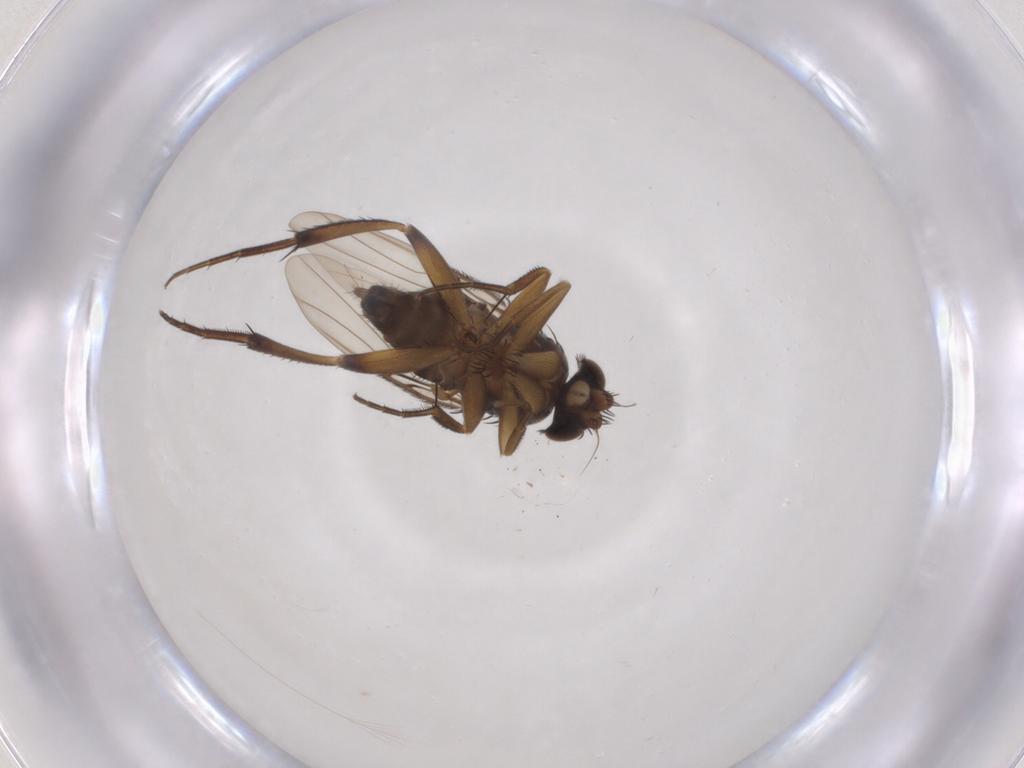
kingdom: Animalia
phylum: Arthropoda
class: Insecta
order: Diptera
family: Phoridae
